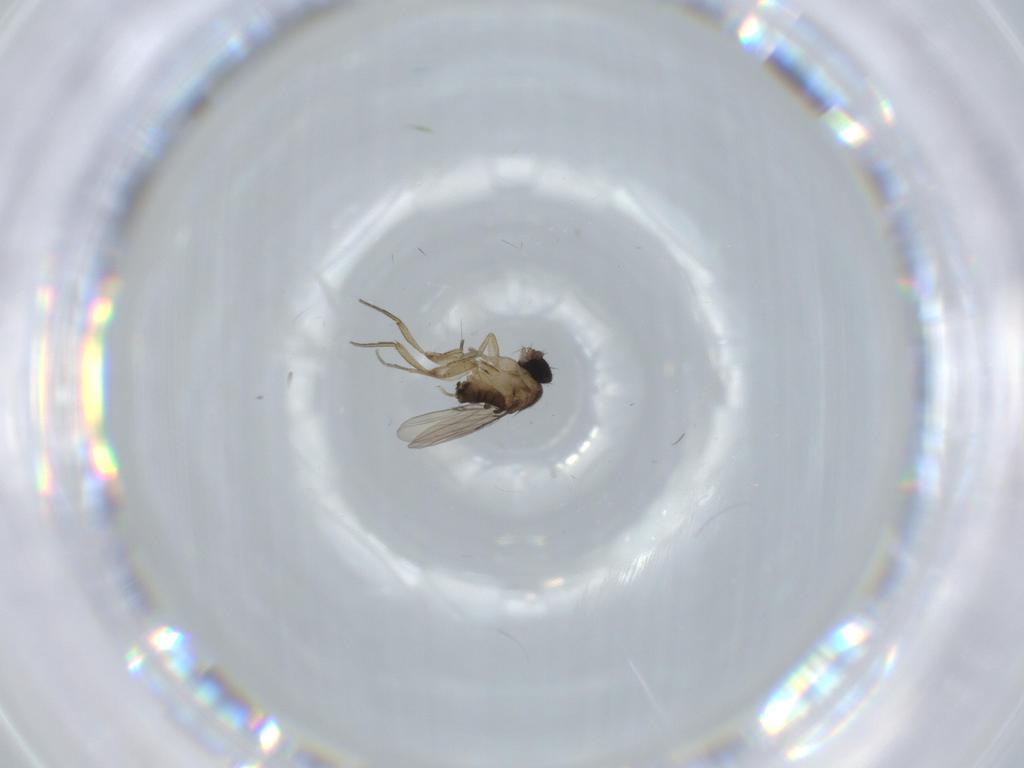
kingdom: Animalia
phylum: Arthropoda
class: Insecta
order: Diptera
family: Phoridae
